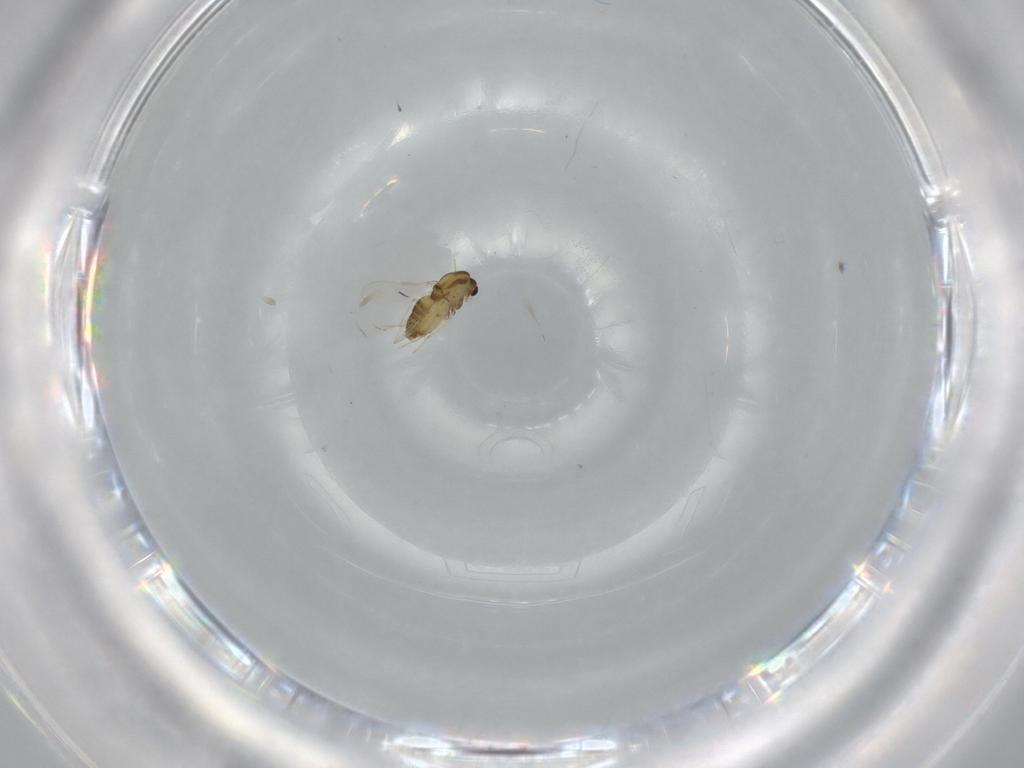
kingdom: Animalia
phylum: Arthropoda
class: Insecta
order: Diptera
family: Chironomidae
